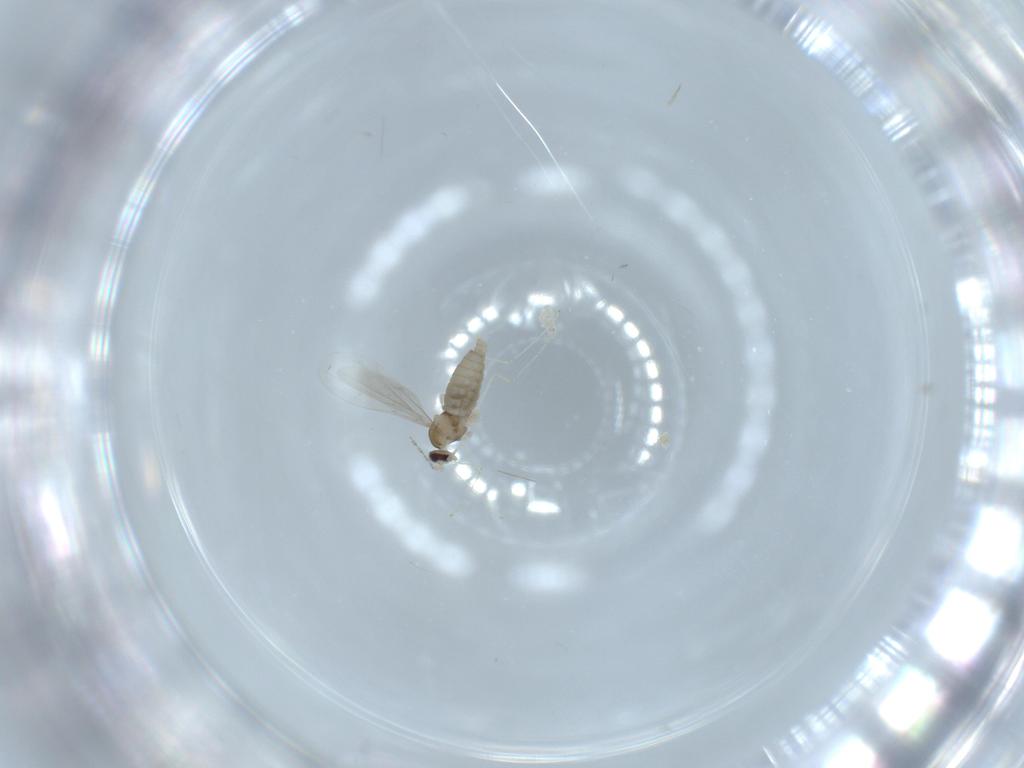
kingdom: Animalia
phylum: Arthropoda
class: Insecta
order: Diptera
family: Cecidomyiidae
